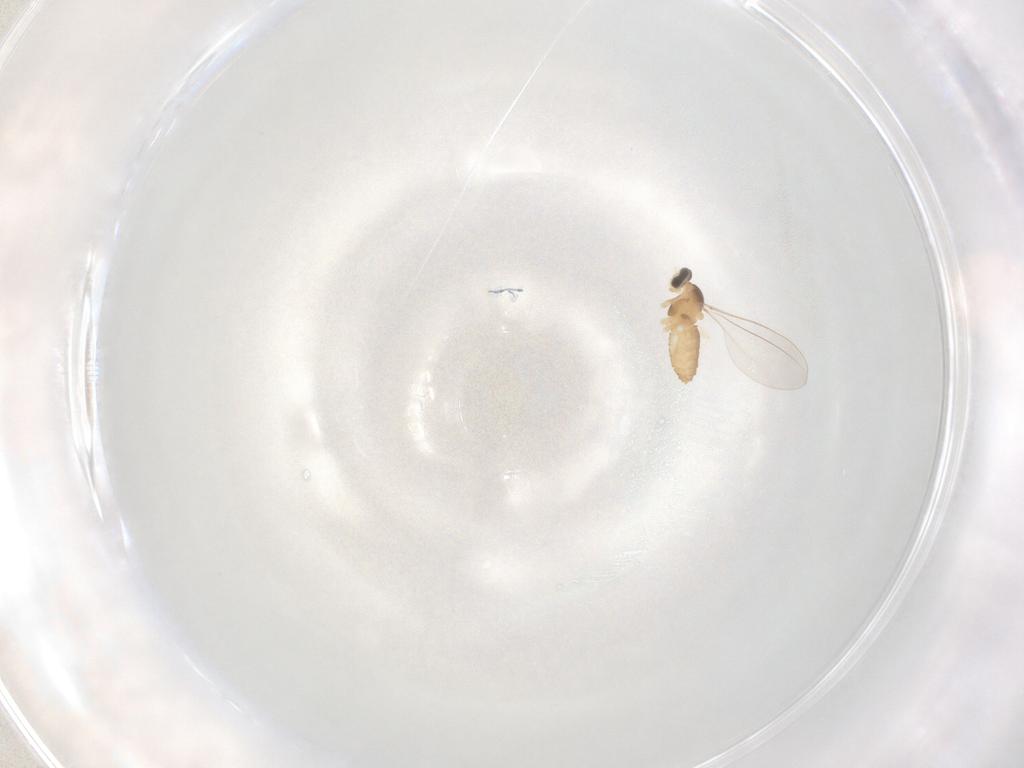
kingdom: Animalia
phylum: Arthropoda
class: Insecta
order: Diptera
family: Cecidomyiidae
